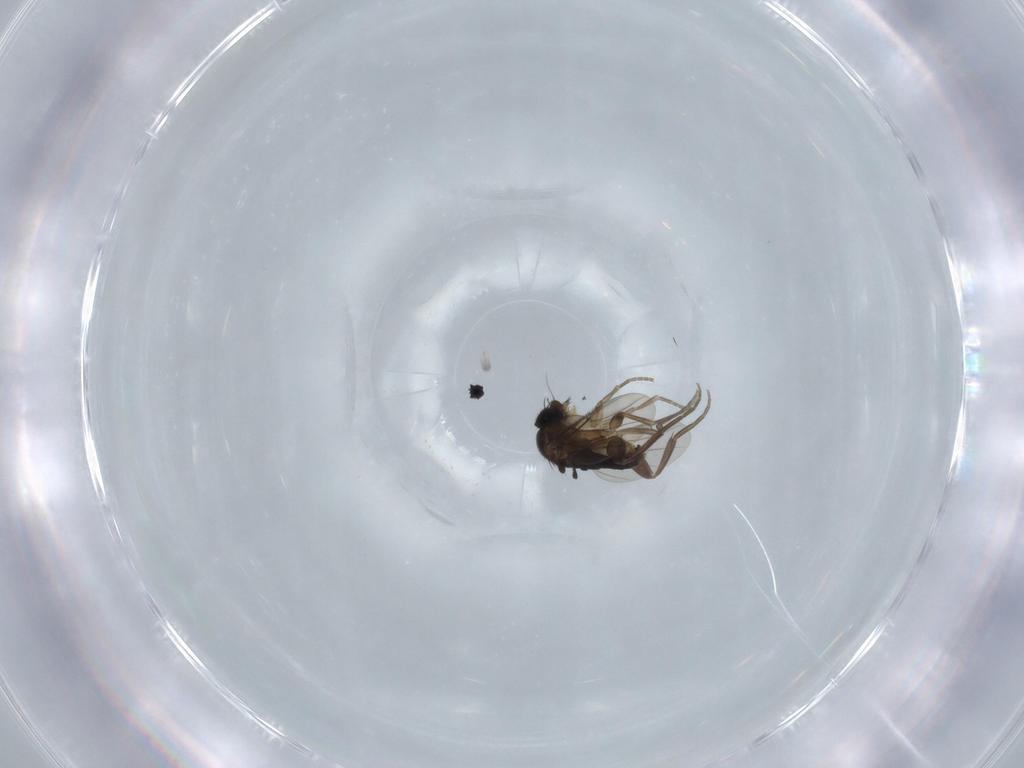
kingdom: Animalia
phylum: Arthropoda
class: Insecta
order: Diptera
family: Phoridae
